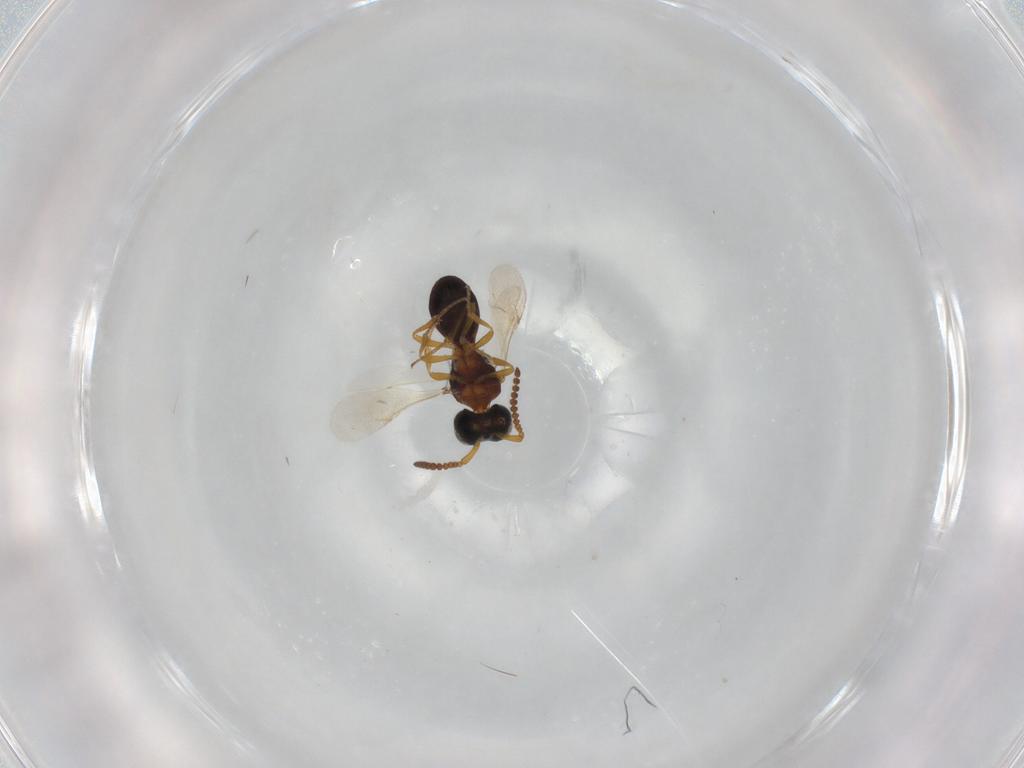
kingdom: Animalia
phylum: Arthropoda
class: Insecta
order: Hymenoptera
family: Scelionidae
